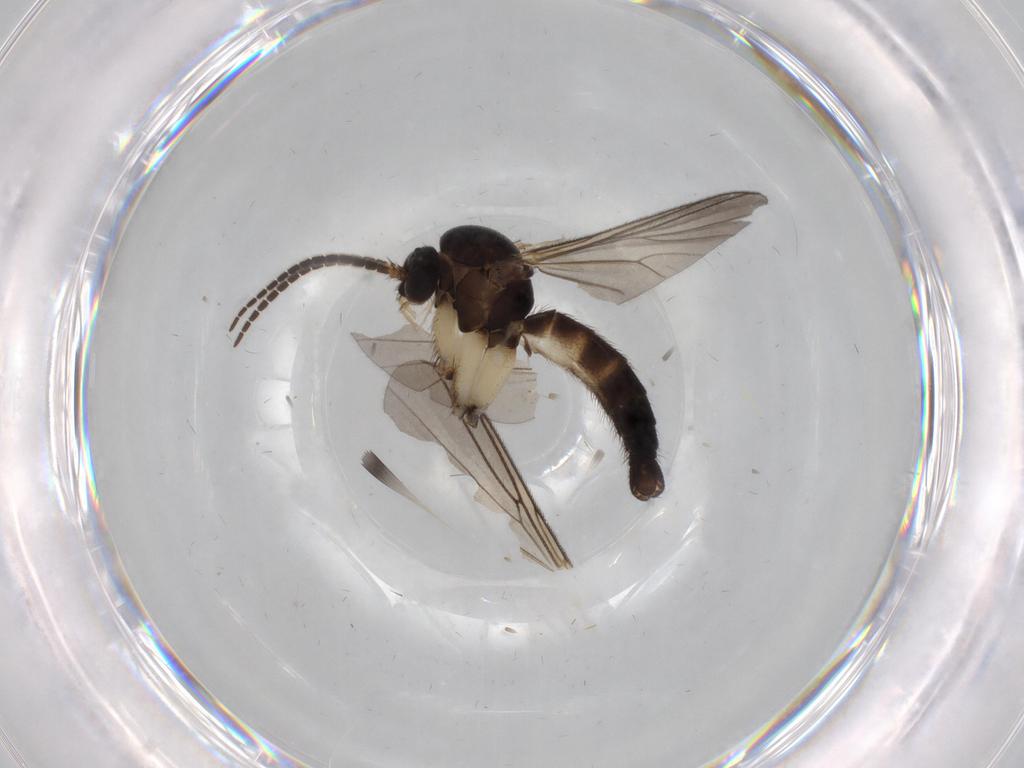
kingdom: Animalia
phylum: Arthropoda
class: Insecta
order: Diptera
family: Mycetophilidae
